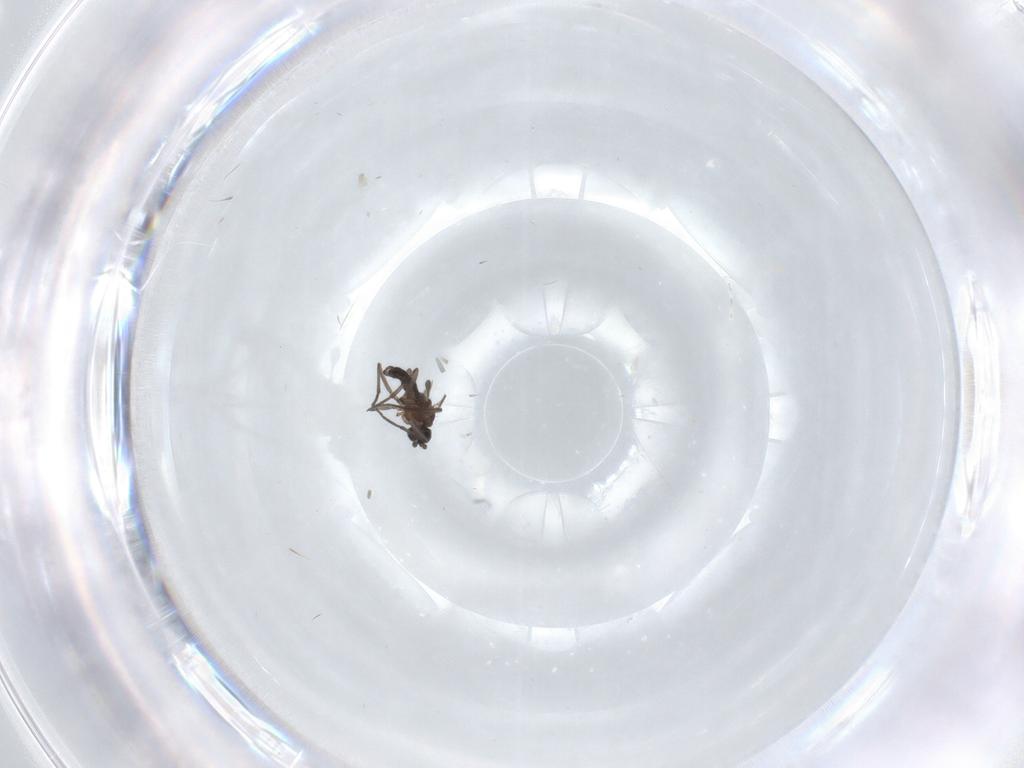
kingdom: Animalia
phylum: Arthropoda
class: Insecta
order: Diptera
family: Sciaridae
